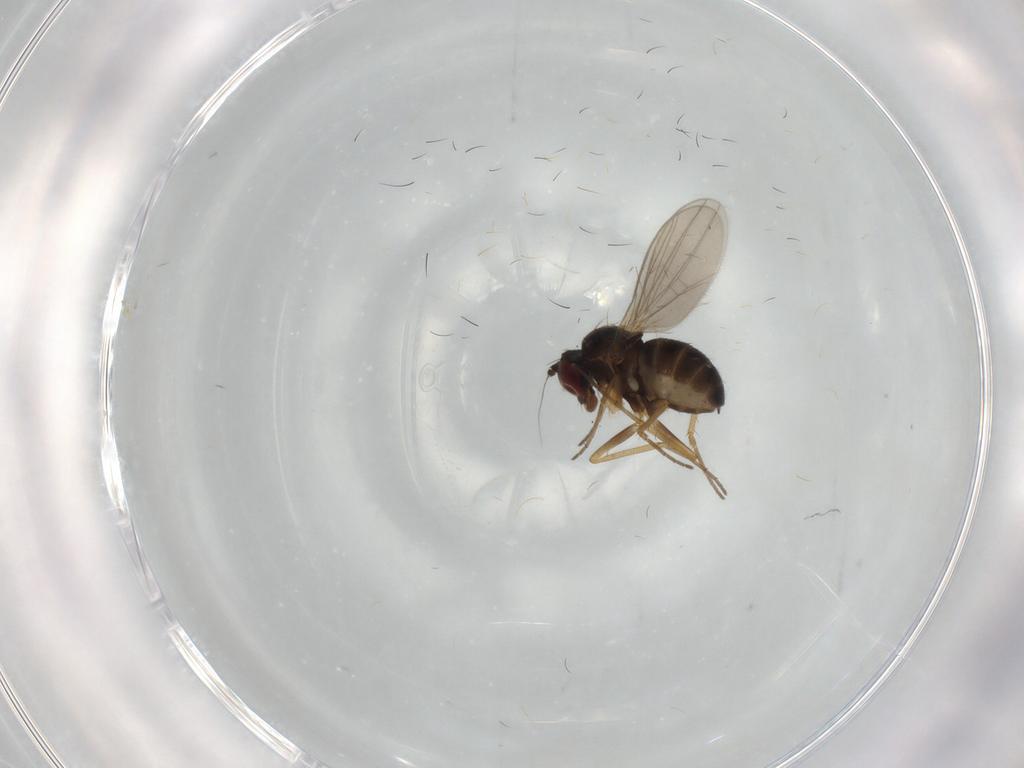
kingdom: Animalia
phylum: Arthropoda
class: Insecta
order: Diptera
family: Dolichopodidae
